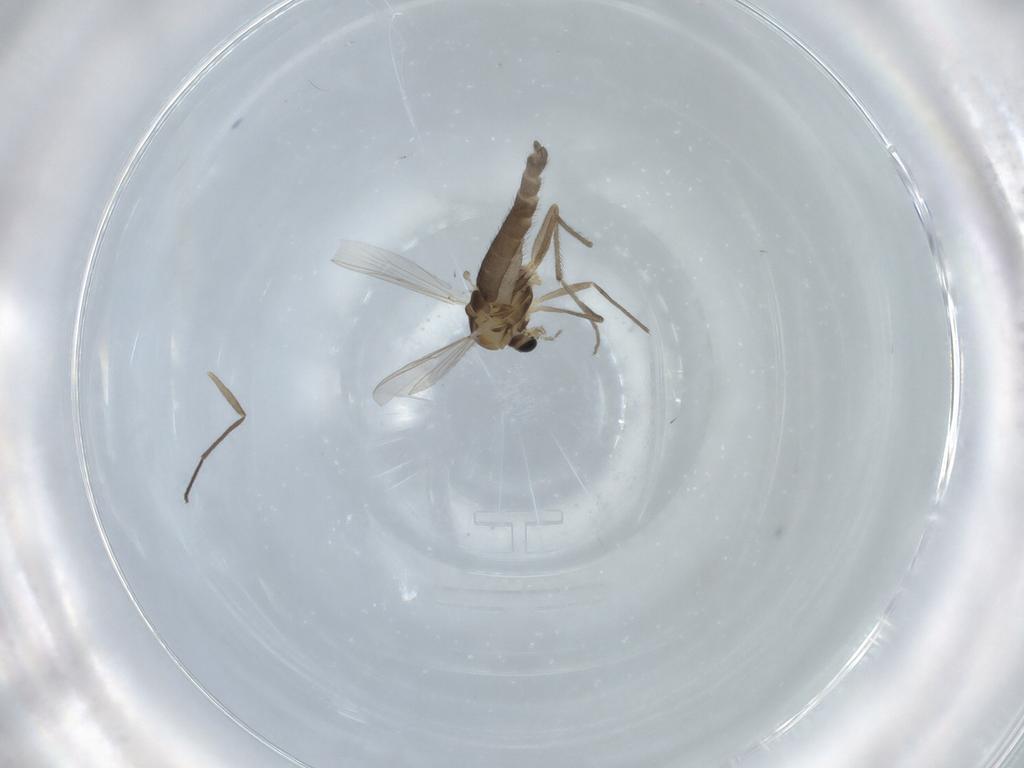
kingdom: Animalia
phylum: Arthropoda
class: Insecta
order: Diptera
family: Chironomidae
